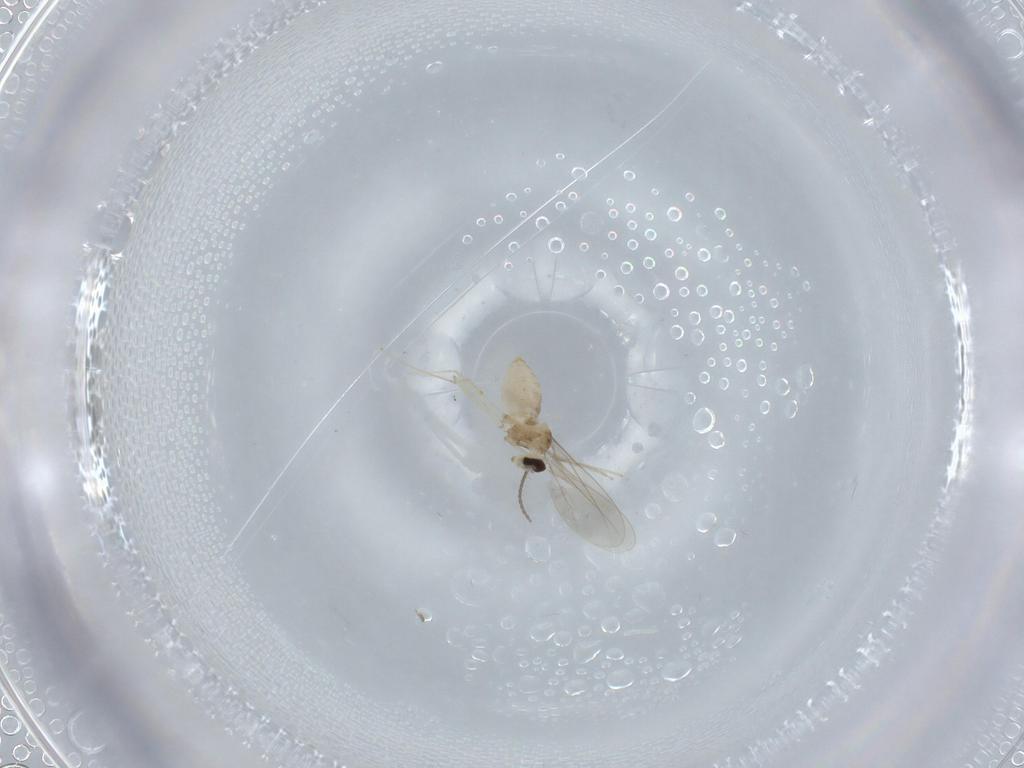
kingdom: Animalia
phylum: Arthropoda
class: Insecta
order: Diptera
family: Cecidomyiidae
